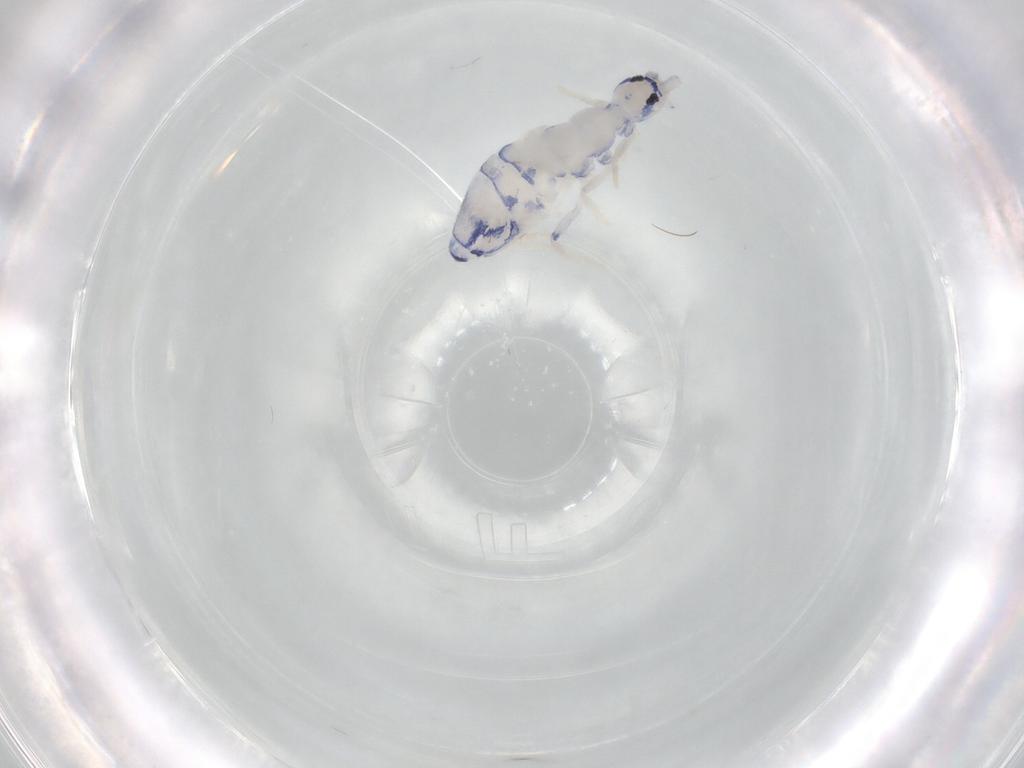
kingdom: Animalia
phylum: Arthropoda
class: Collembola
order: Entomobryomorpha
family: Entomobryidae
